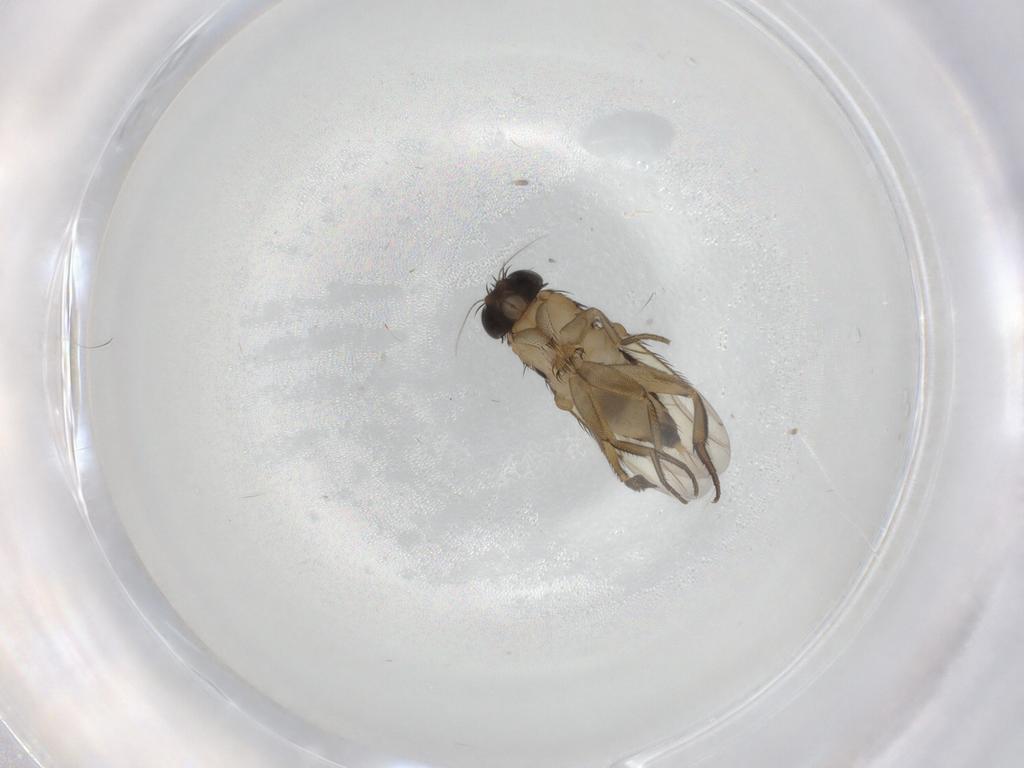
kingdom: Animalia
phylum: Arthropoda
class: Insecta
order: Diptera
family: Phoridae
